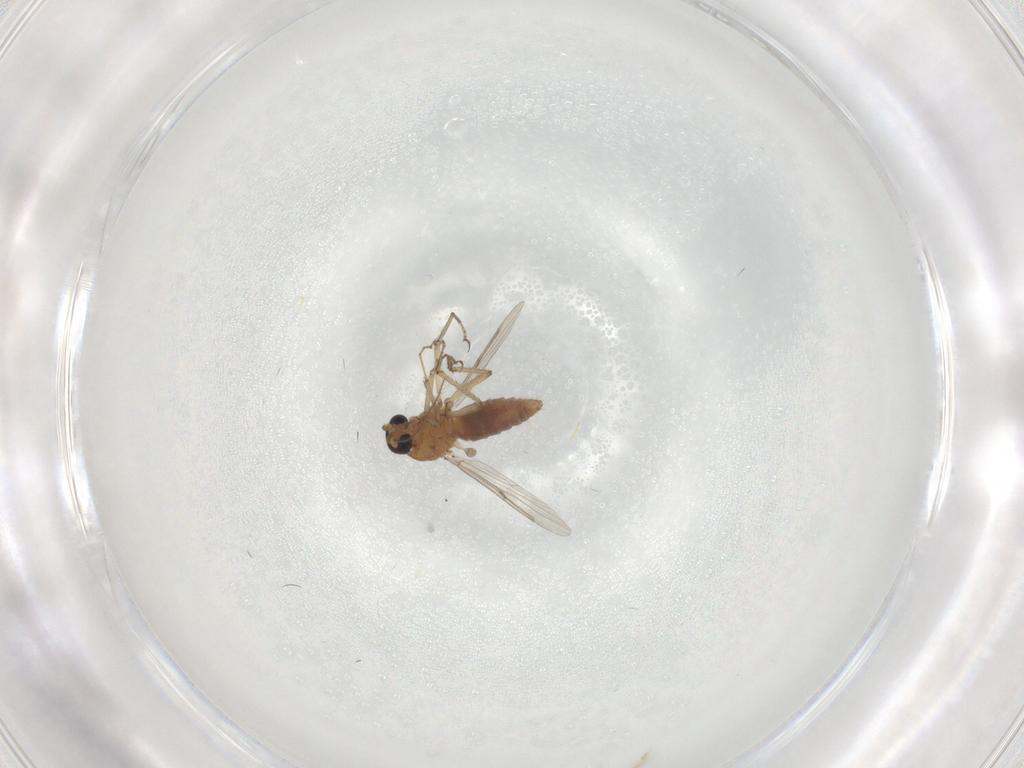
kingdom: Animalia
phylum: Arthropoda
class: Insecta
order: Diptera
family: Ceratopogonidae
